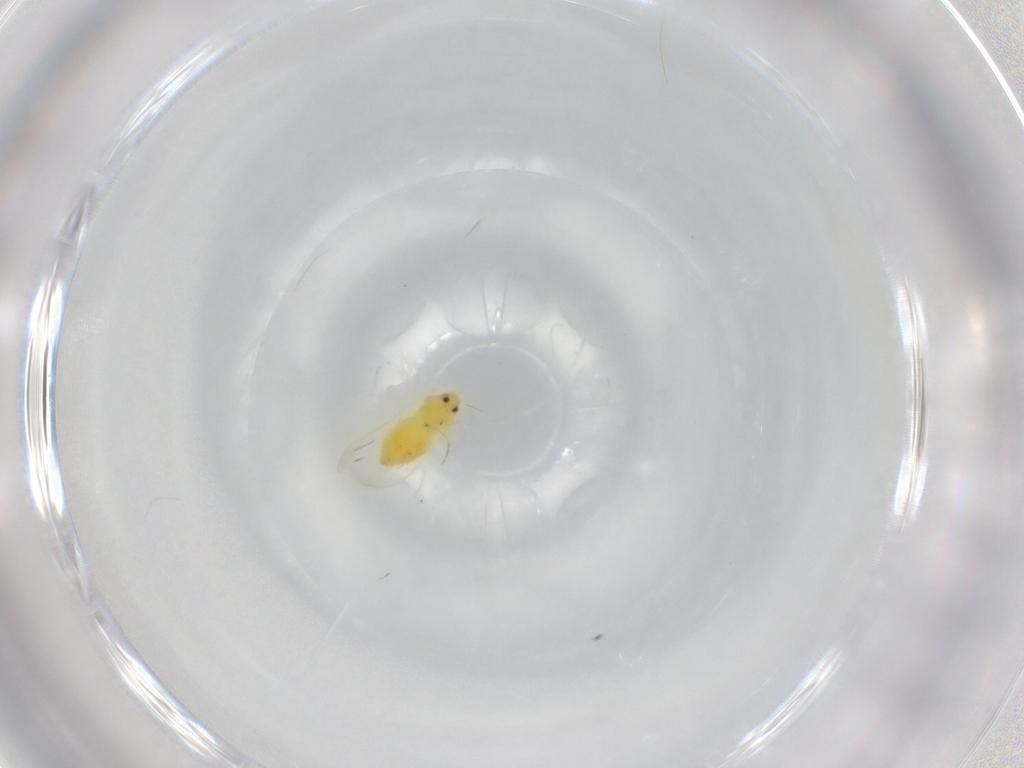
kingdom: Animalia
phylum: Arthropoda
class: Insecta
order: Hemiptera
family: Aleyrodidae
